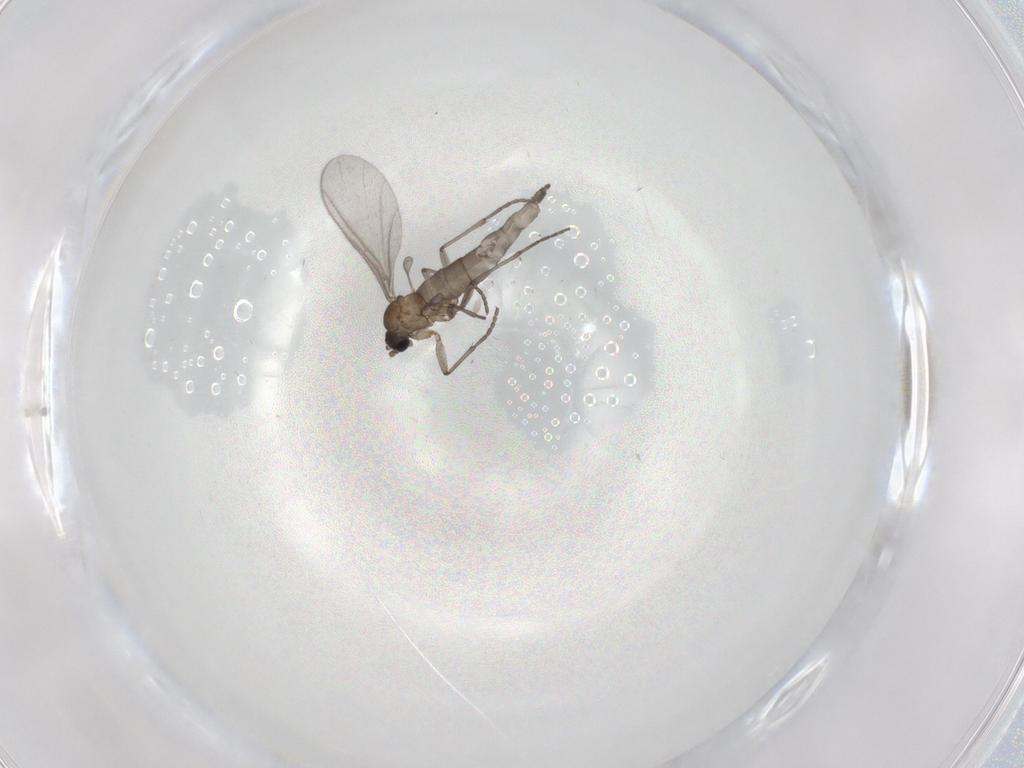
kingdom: Animalia
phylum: Arthropoda
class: Insecta
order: Diptera
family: Sciaridae
